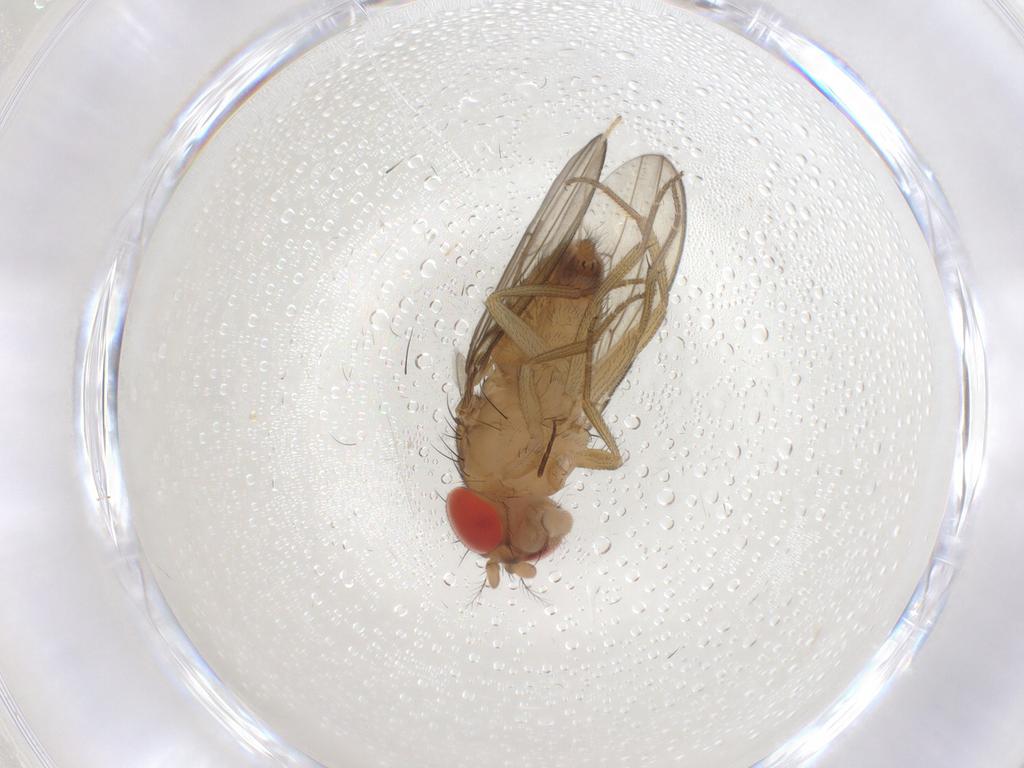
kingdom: Animalia
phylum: Arthropoda
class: Insecta
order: Diptera
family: Drosophilidae
